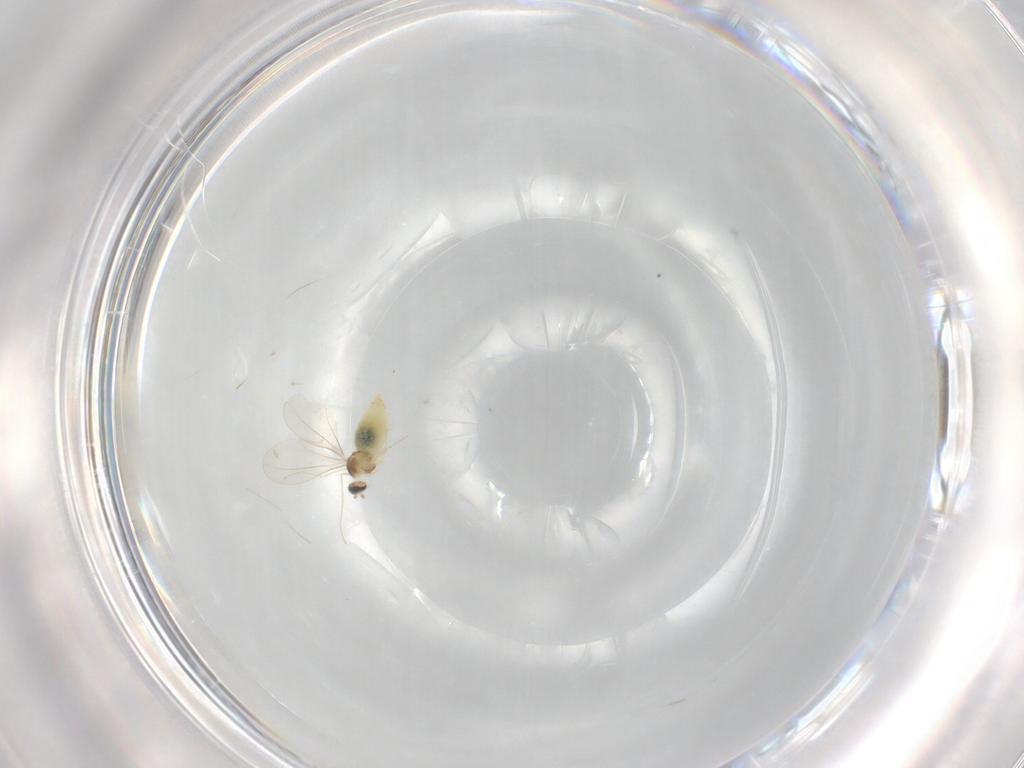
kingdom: Animalia
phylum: Arthropoda
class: Insecta
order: Diptera
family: Cecidomyiidae
